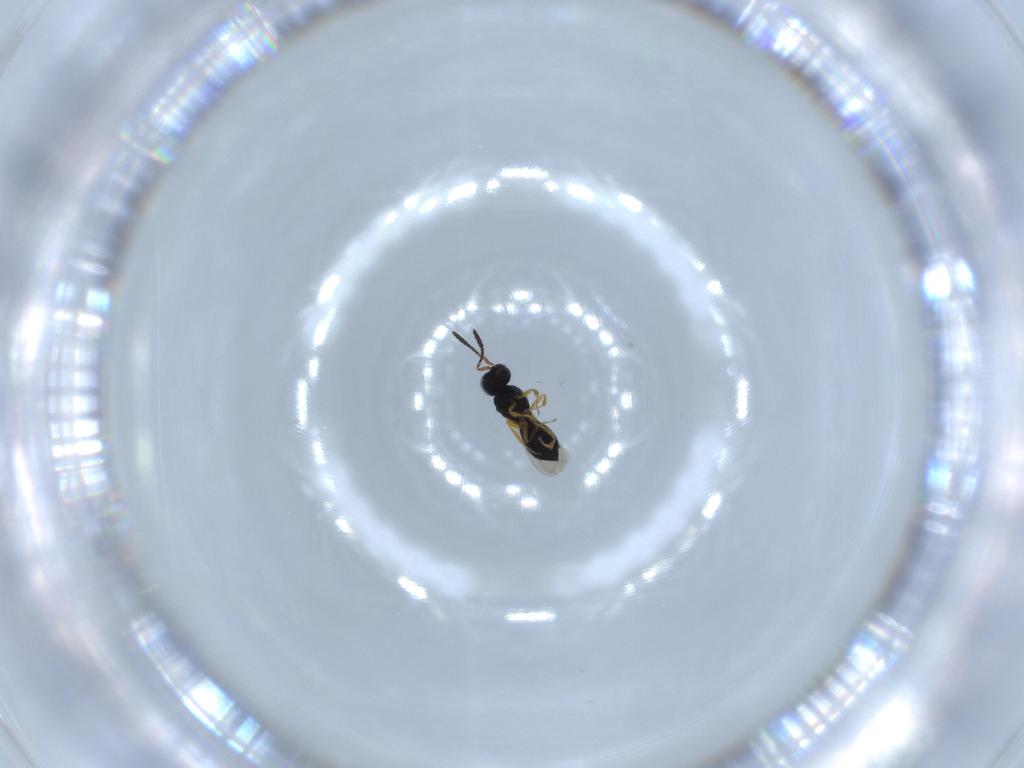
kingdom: Animalia
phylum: Arthropoda
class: Insecta
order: Hymenoptera
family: Scelionidae
